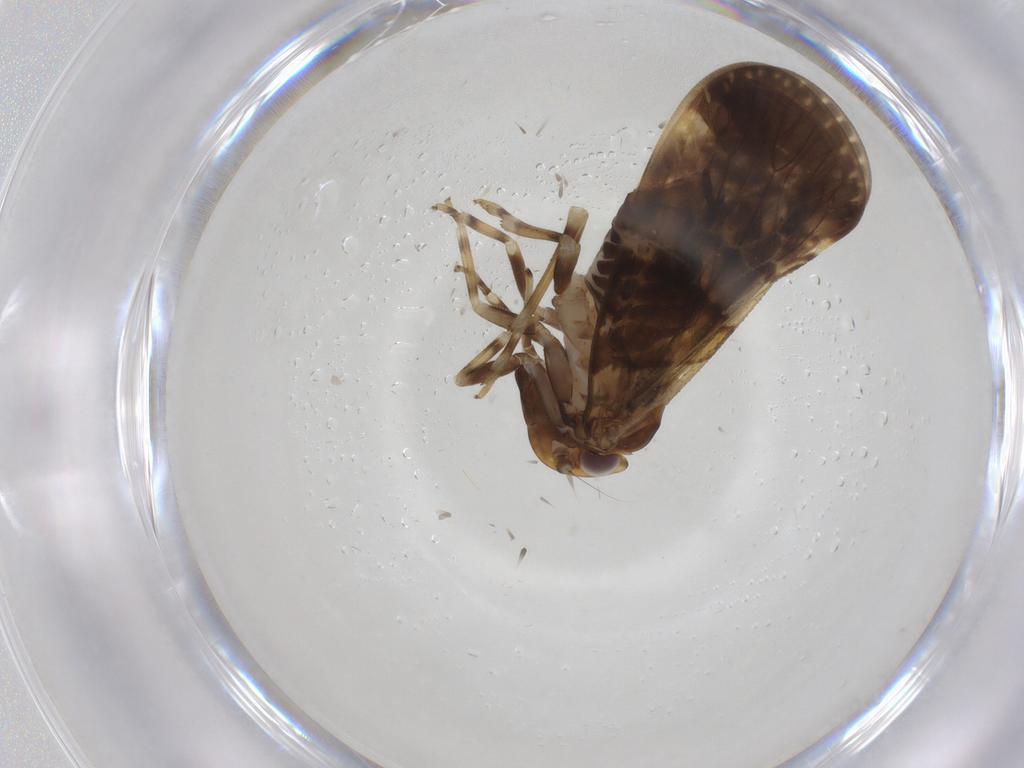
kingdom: Animalia
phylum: Arthropoda
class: Insecta
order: Hemiptera
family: Cixiidae
